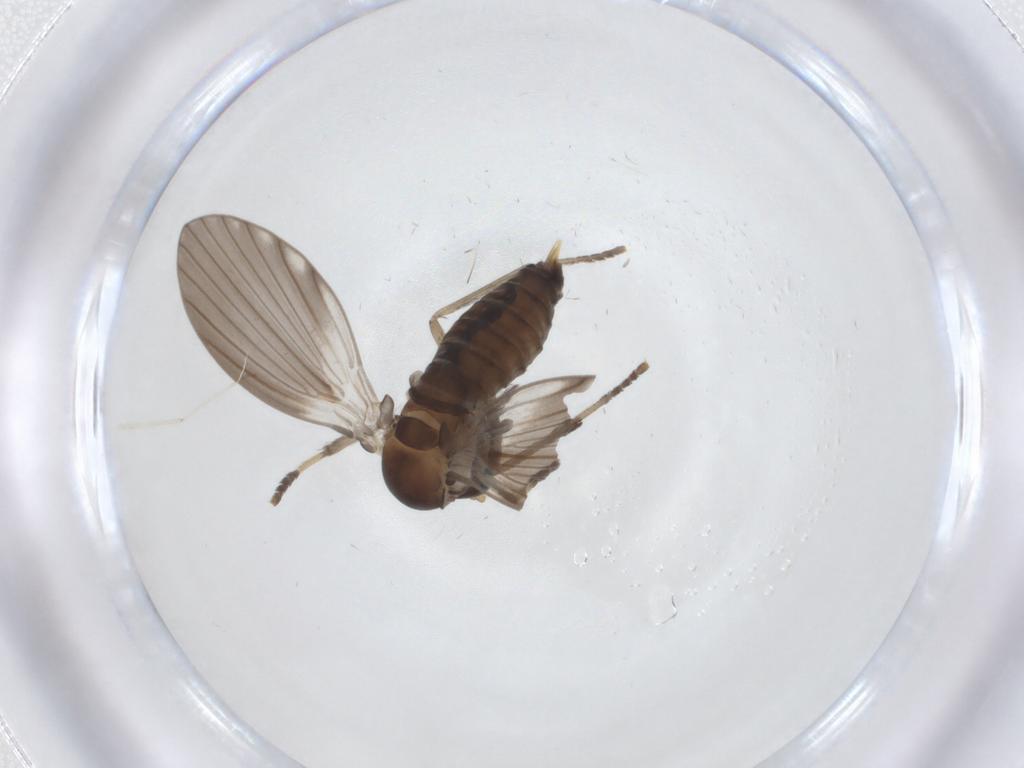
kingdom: Animalia
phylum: Arthropoda
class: Insecta
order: Diptera
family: Cecidomyiidae
